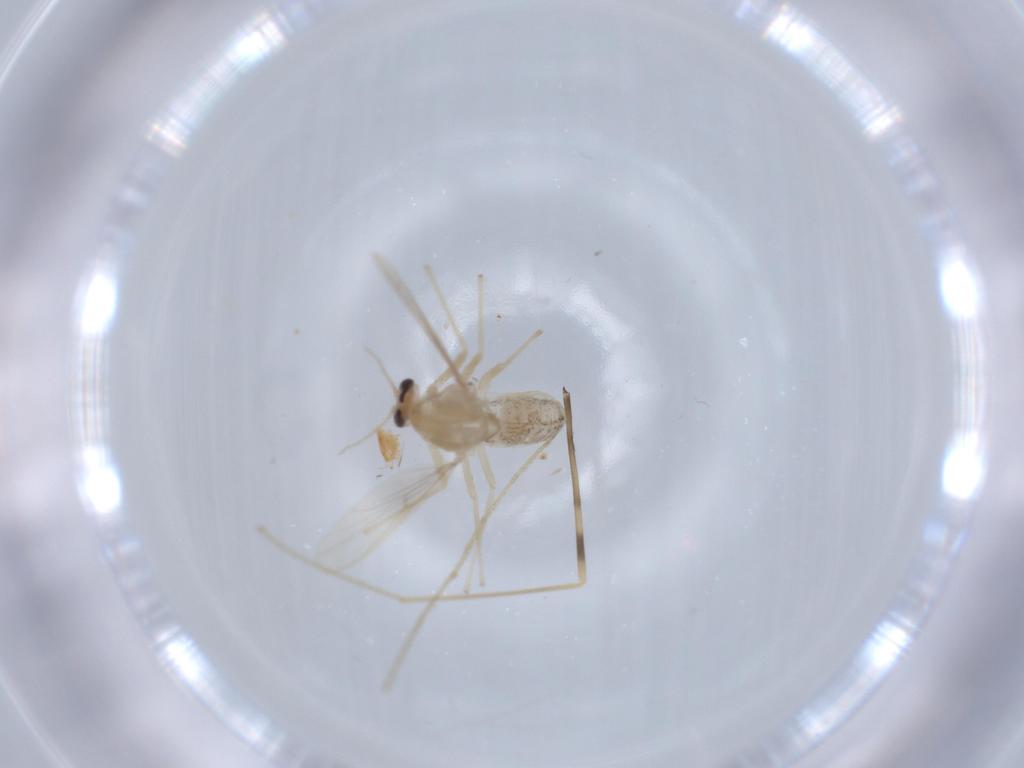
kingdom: Animalia
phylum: Arthropoda
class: Insecta
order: Diptera
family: Chironomidae
